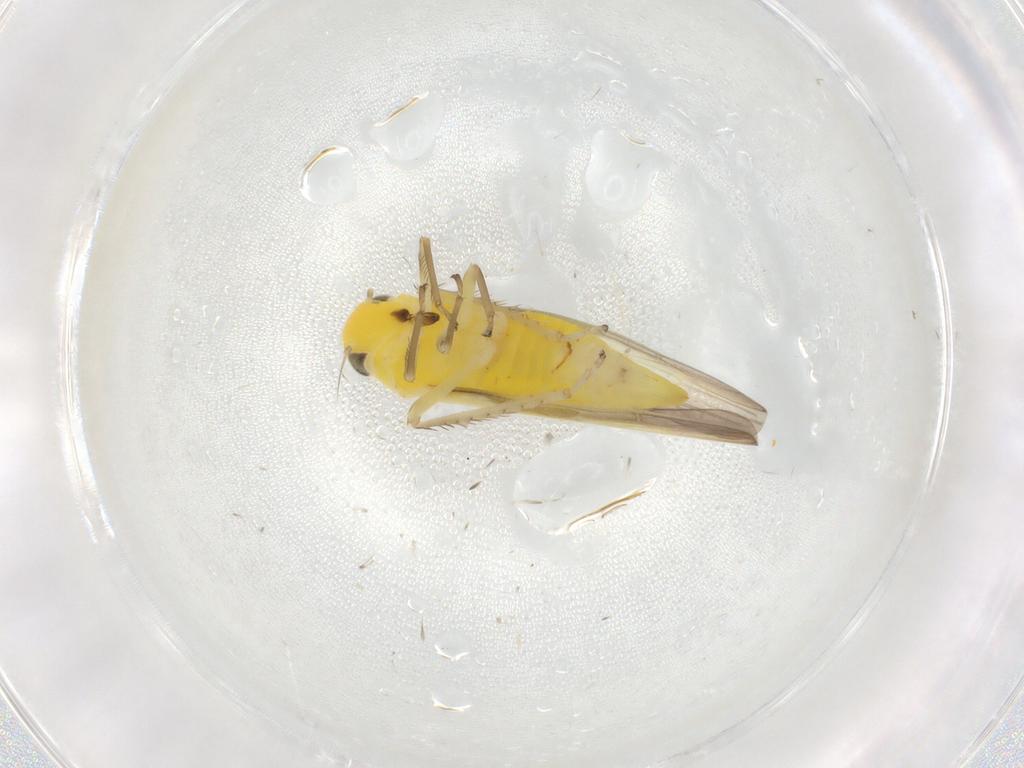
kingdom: Animalia
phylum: Arthropoda
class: Insecta
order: Hemiptera
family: Cicadellidae
